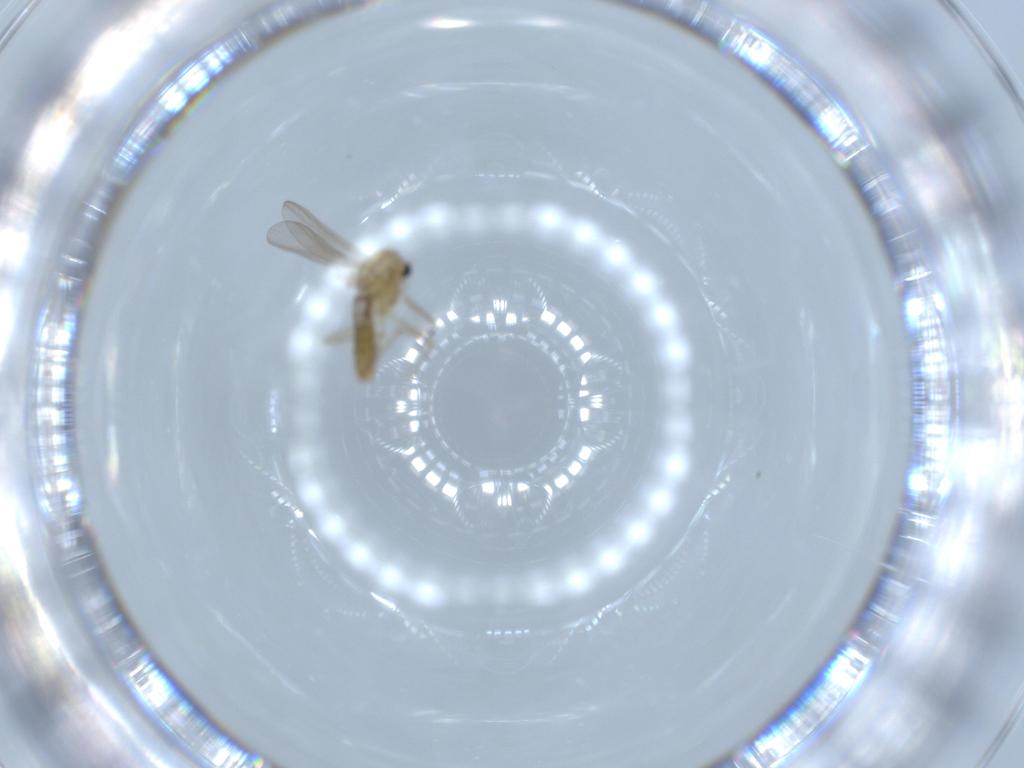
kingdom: Animalia
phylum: Arthropoda
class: Insecta
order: Diptera
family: Chironomidae
